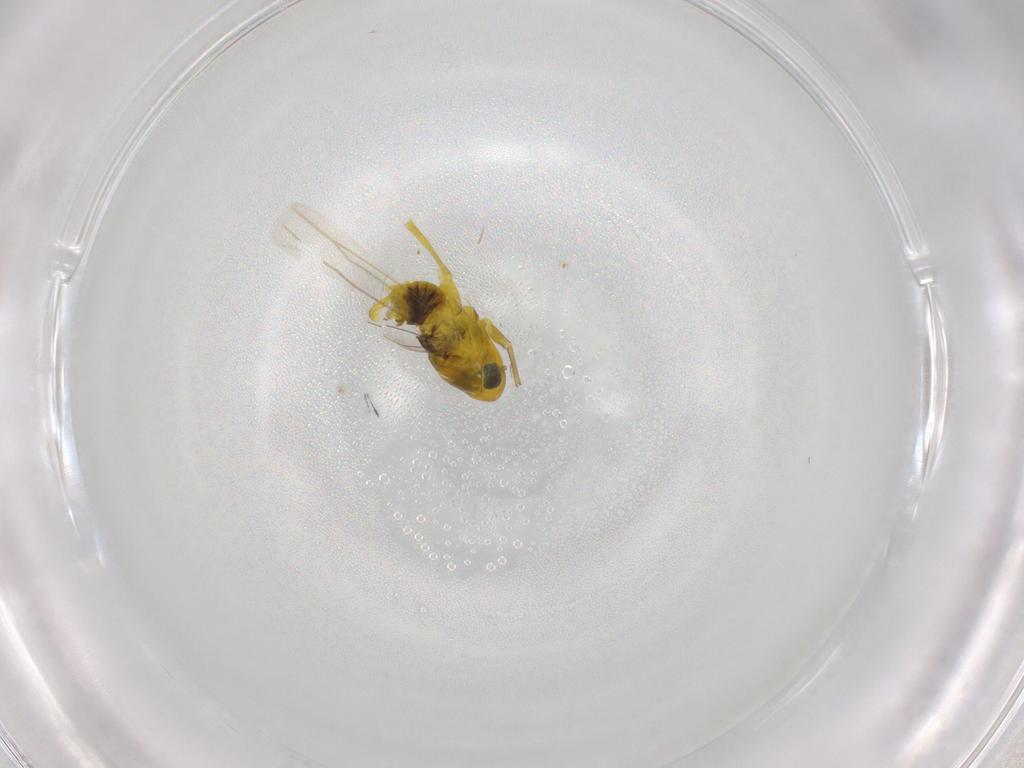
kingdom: Animalia
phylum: Arthropoda
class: Insecta
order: Hemiptera
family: Cicadellidae
